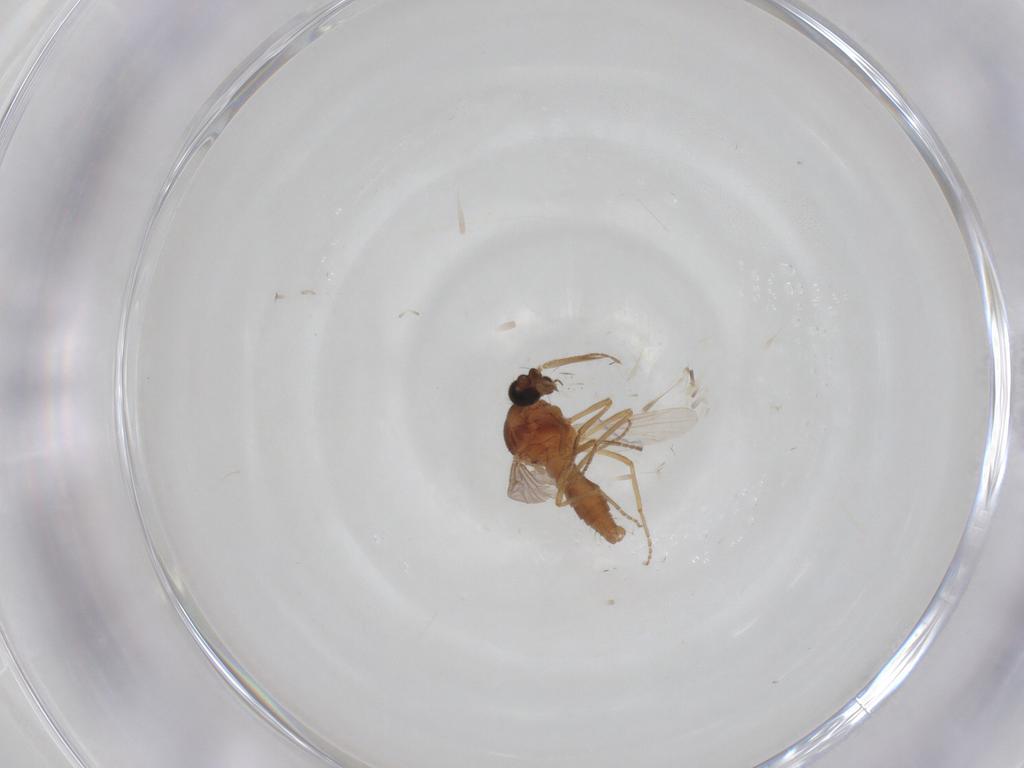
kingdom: Animalia
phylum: Arthropoda
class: Insecta
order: Diptera
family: Ceratopogonidae
